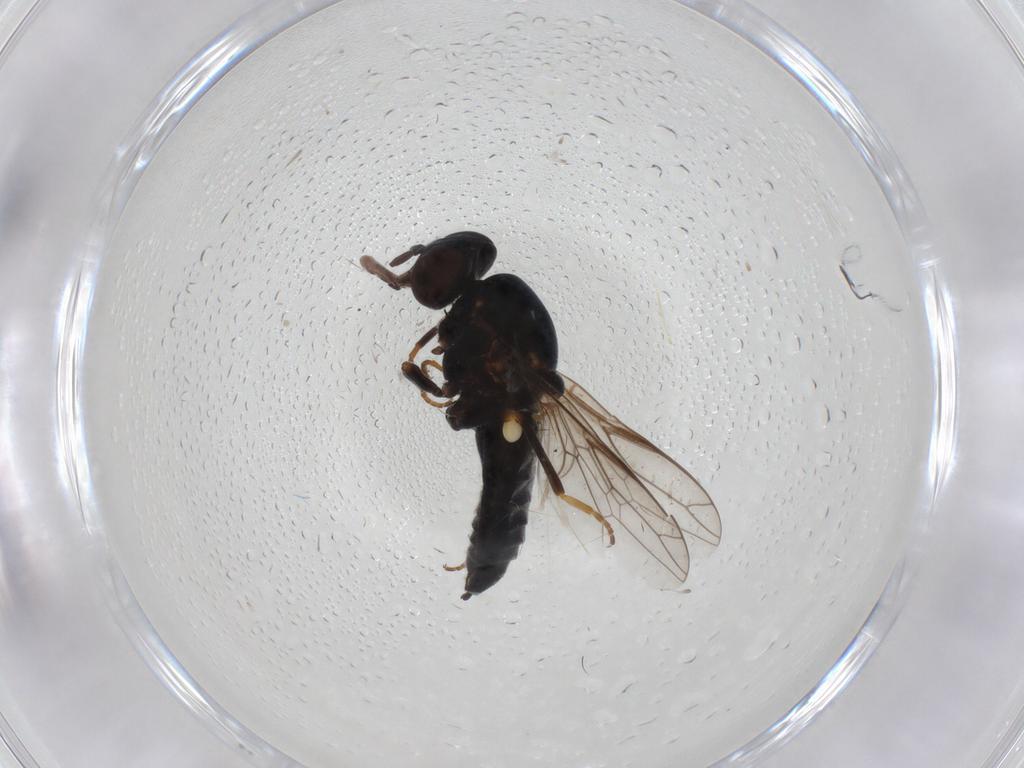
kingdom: Animalia
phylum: Arthropoda
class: Insecta
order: Diptera
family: Scenopinidae
